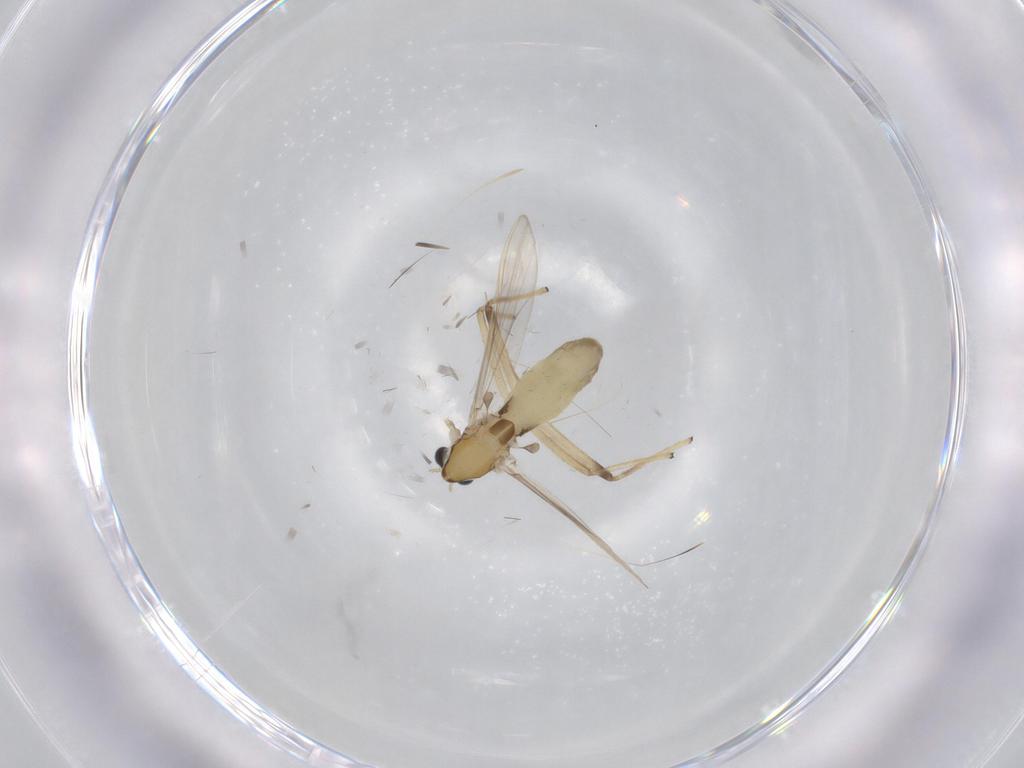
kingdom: Animalia
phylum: Arthropoda
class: Insecta
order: Diptera
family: Chironomidae
